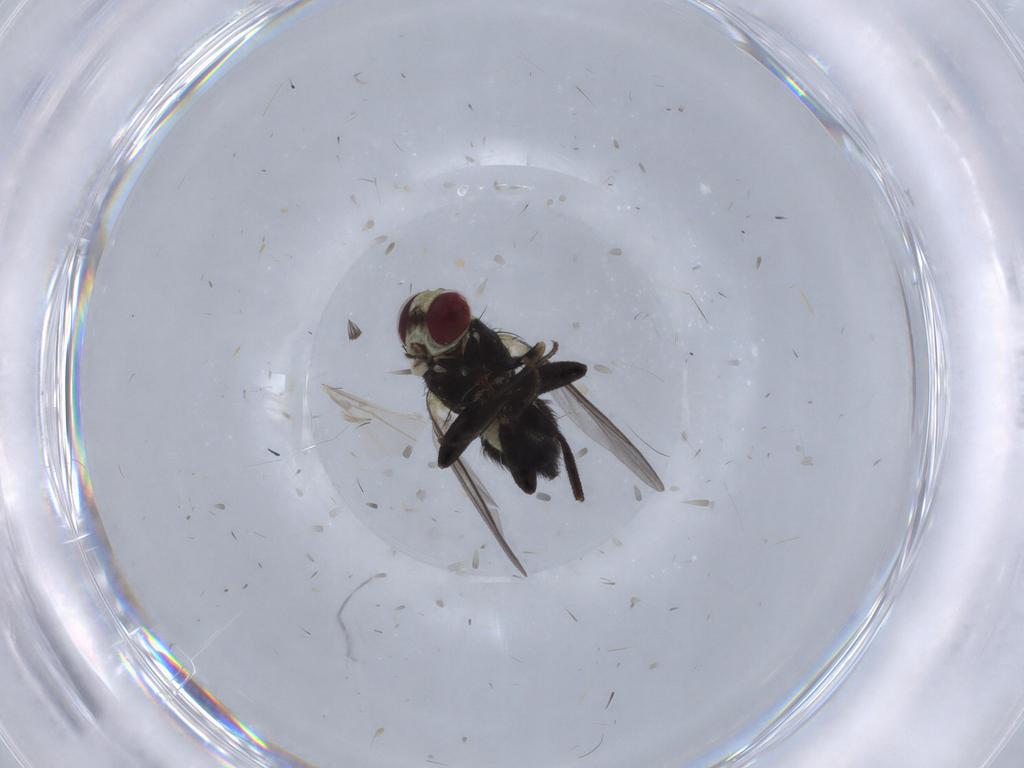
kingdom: Animalia
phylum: Arthropoda
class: Insecta
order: Diptera
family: Chironomidae
